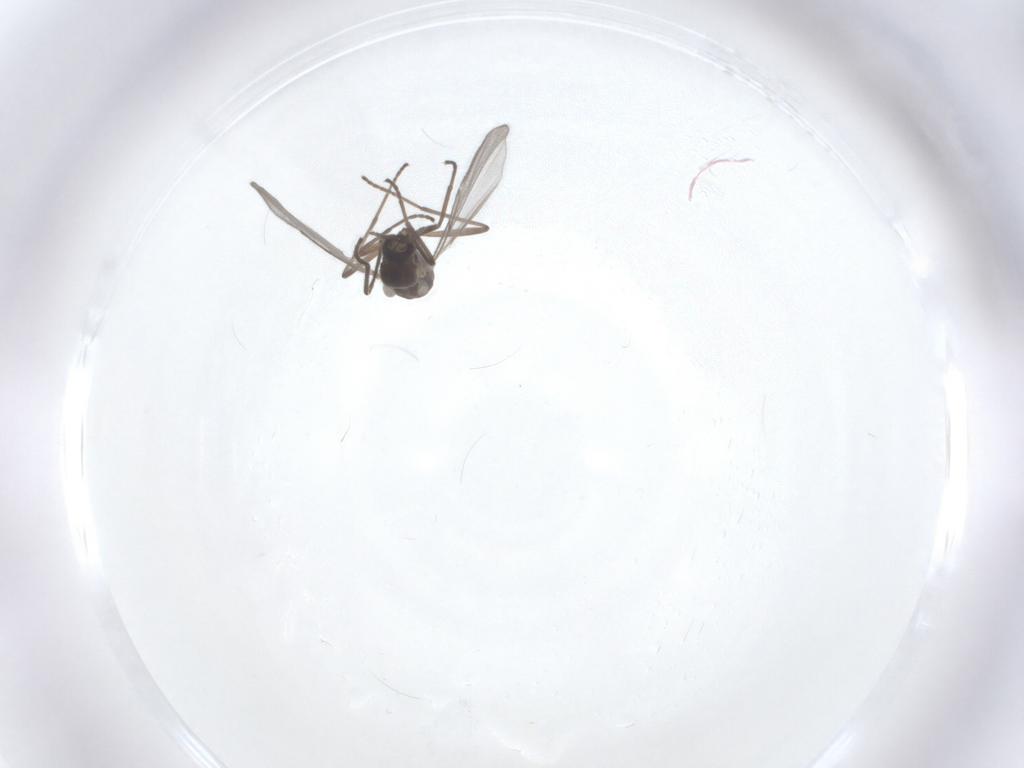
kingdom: Animalia
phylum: Arthropoda
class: Insecta
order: Diptera
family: Cecidomyiidae
